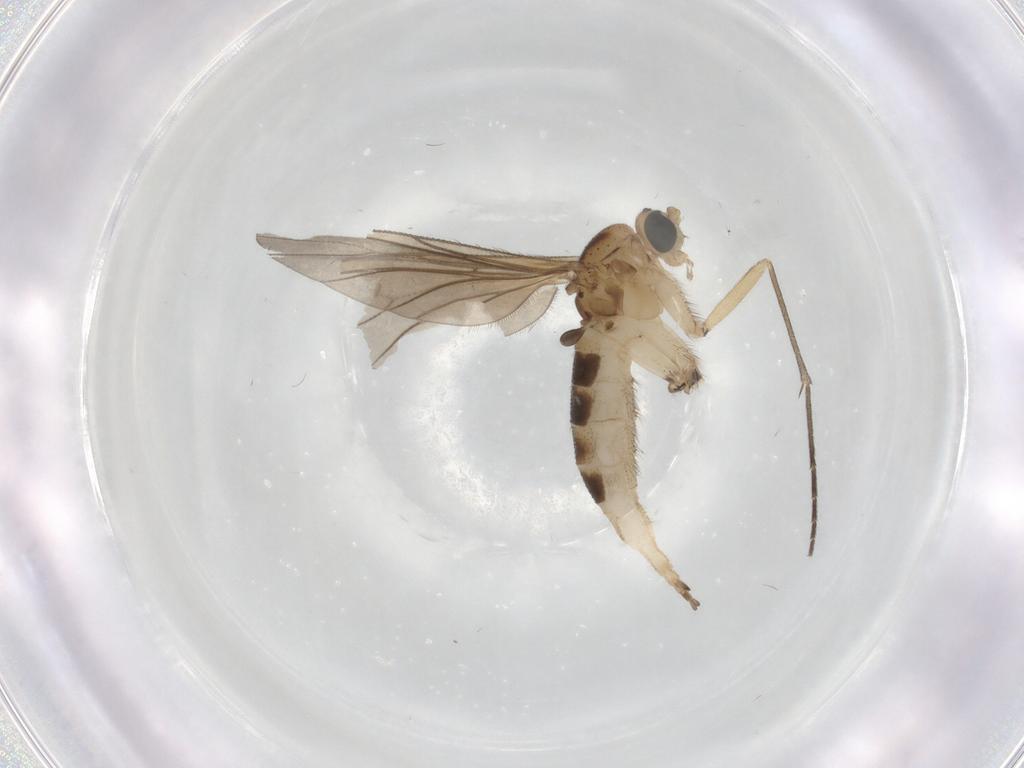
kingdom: Animalia
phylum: Arthropoda
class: Insecta
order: Diptera
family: Cecidomyiidae
